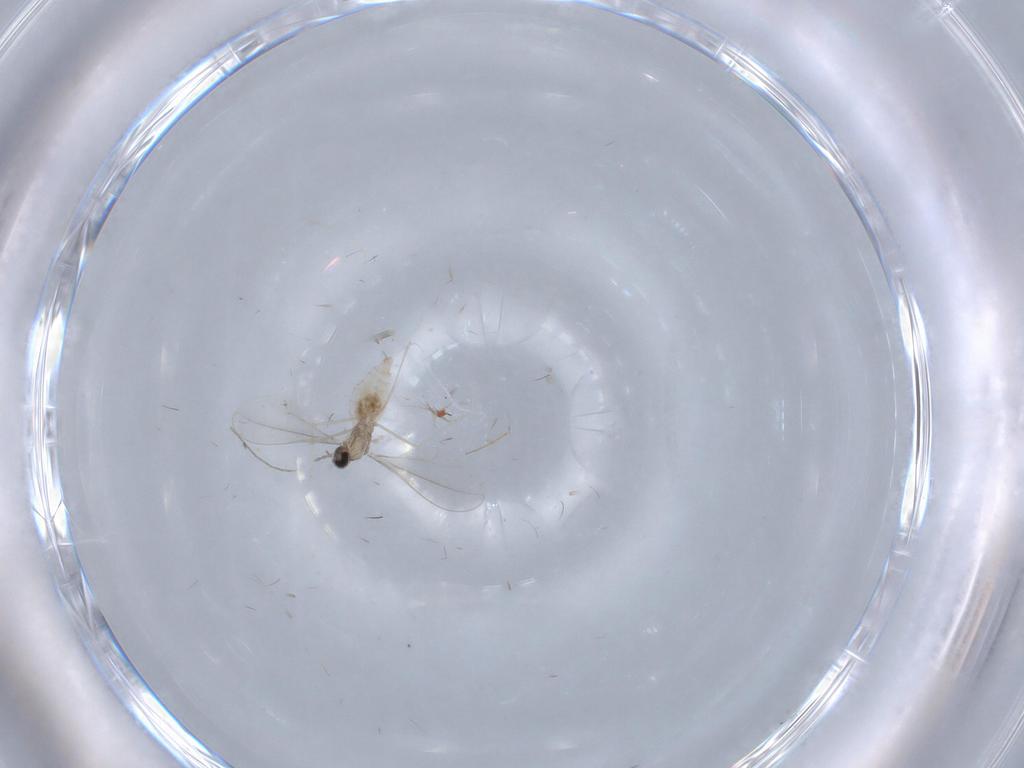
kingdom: Animalia
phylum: Arthropoda
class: Insecta
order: Diptera
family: Cecidomyiidae
